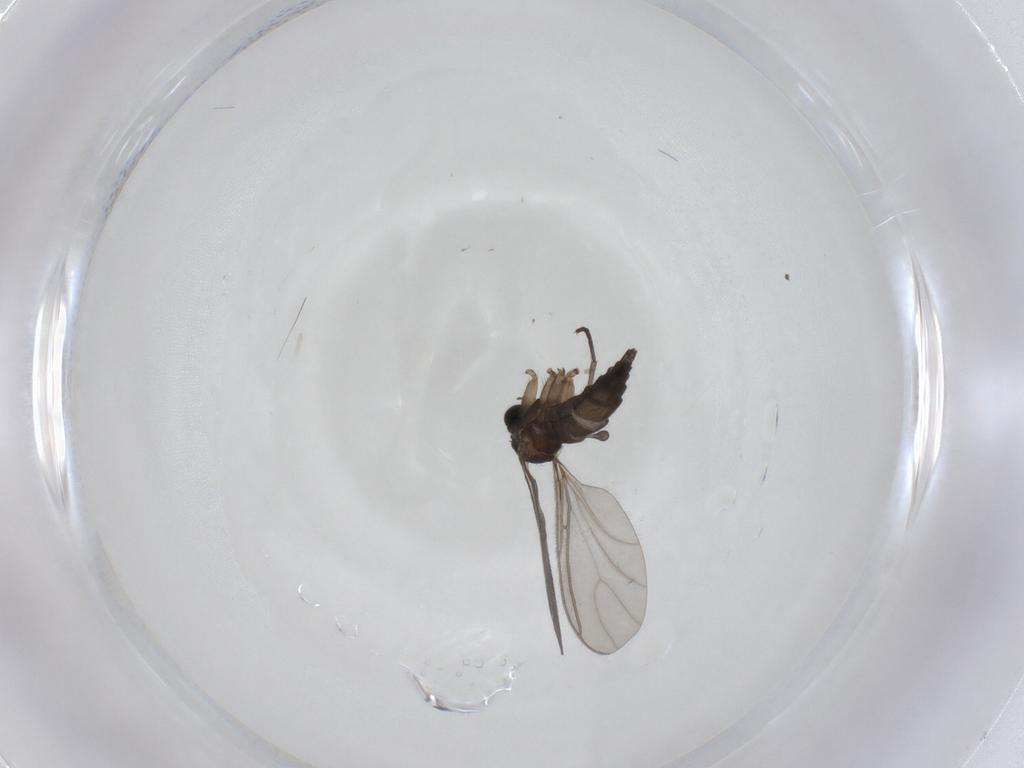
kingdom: Animalia
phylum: Arthropoda
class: Insecta
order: Diptera
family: Sciaridae
